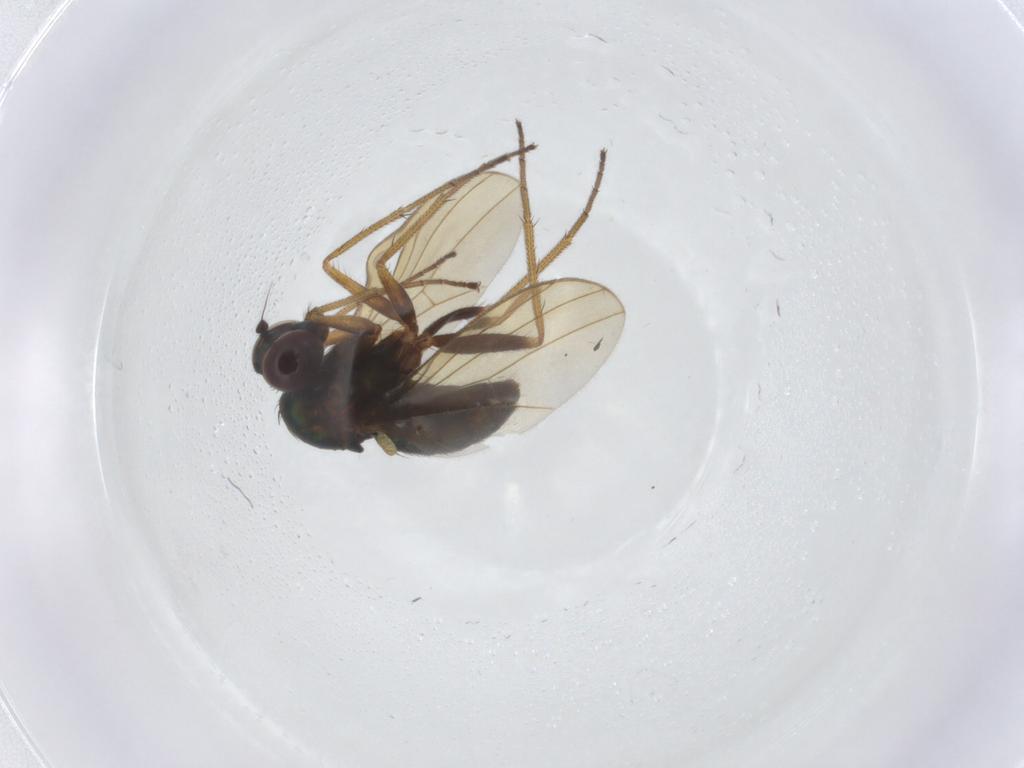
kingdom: Animalia
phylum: Arthropoda
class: Insecta
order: Diptera
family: Dolichopodidae
